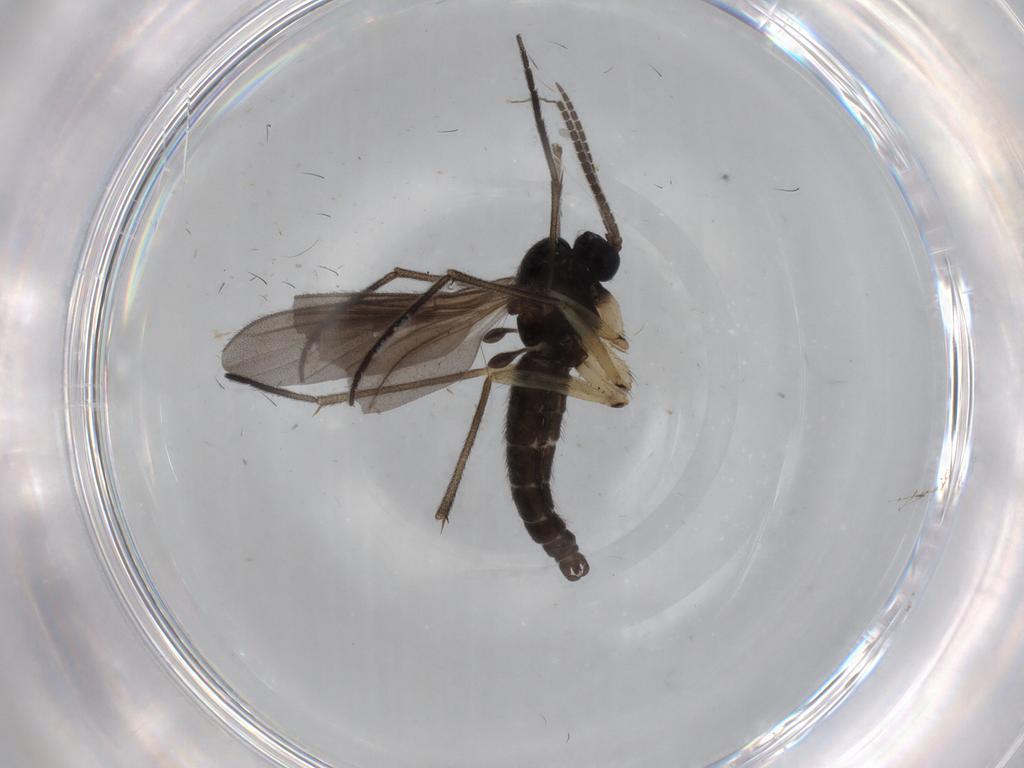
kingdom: Animalia
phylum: Arthropoda
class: Insecta
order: Diptera
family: Sciaridae
